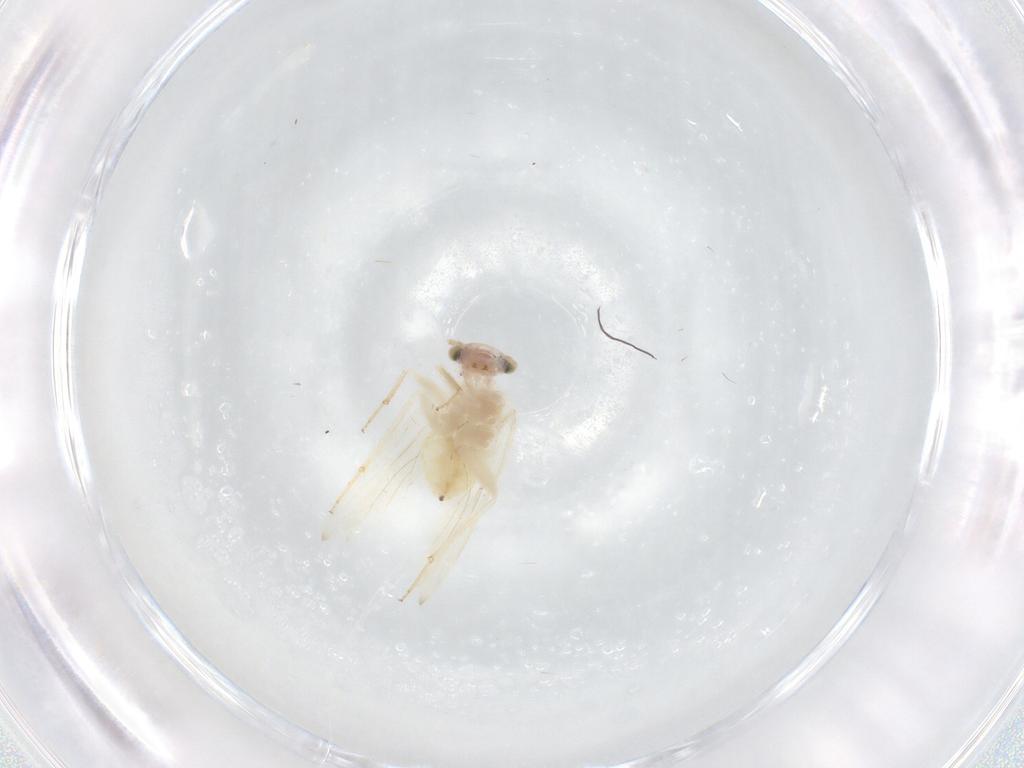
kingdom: Animalia
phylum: Arthropoda
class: Insecta
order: Psocodea
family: Lepidopsocidae
